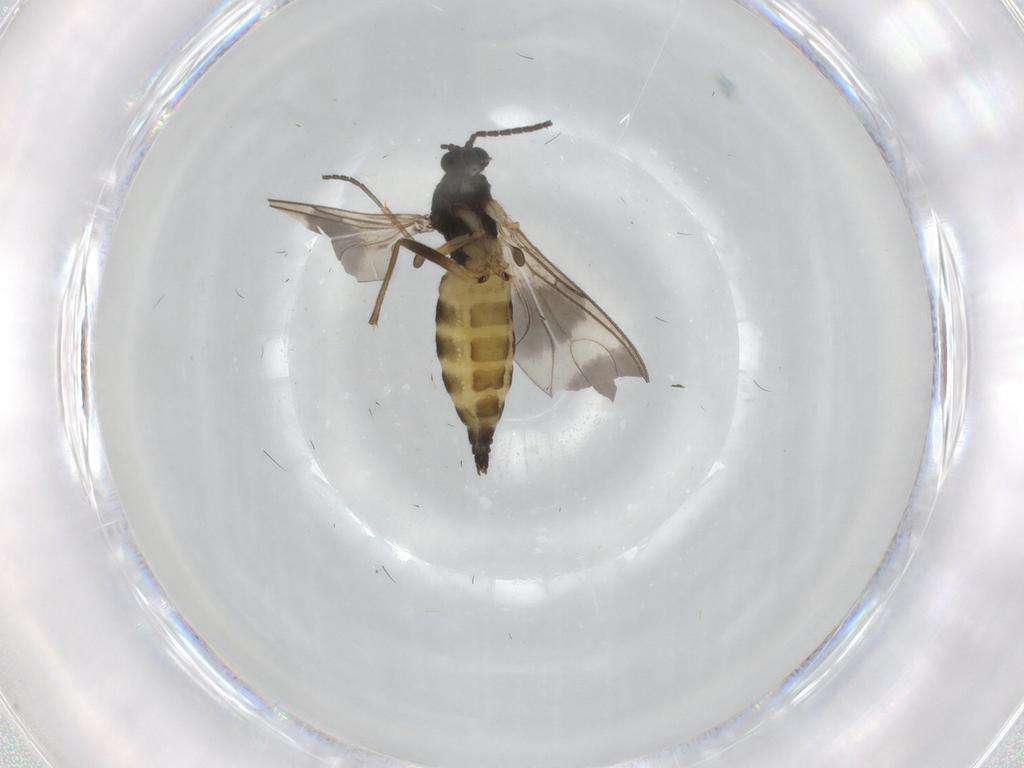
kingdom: Animalia
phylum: Arthropoda
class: Insecta
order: Diptera
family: Sciaridae
